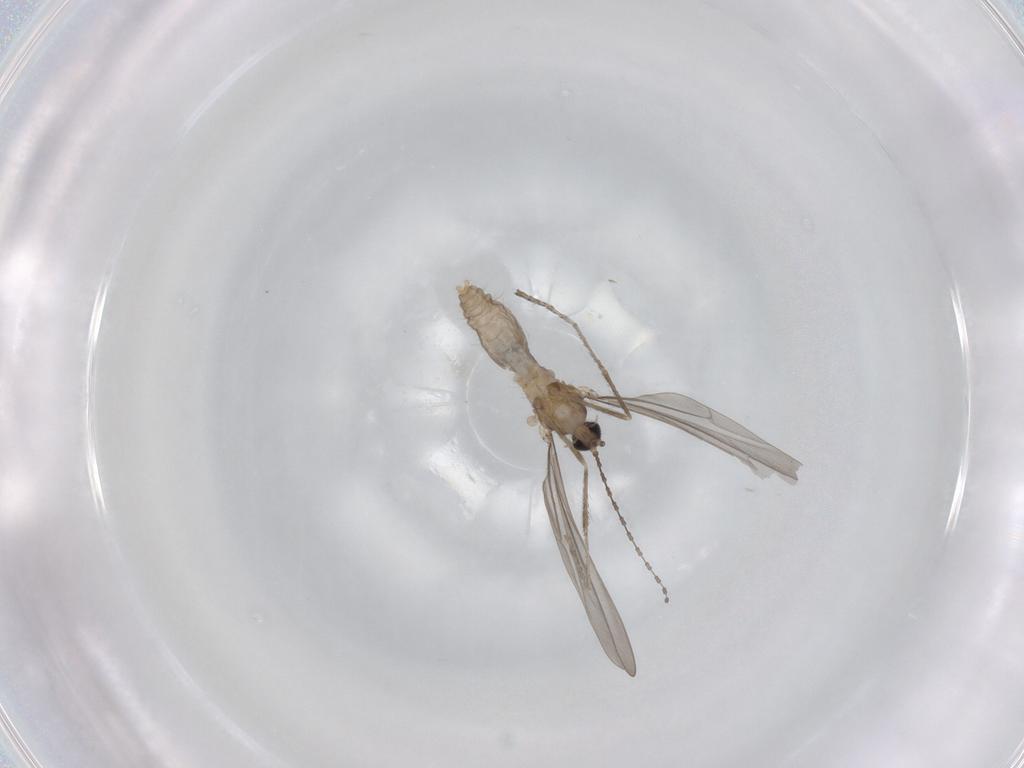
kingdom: Animalia
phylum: Arthropoda
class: Insecta
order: Diptera
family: Cecidomyiidae
